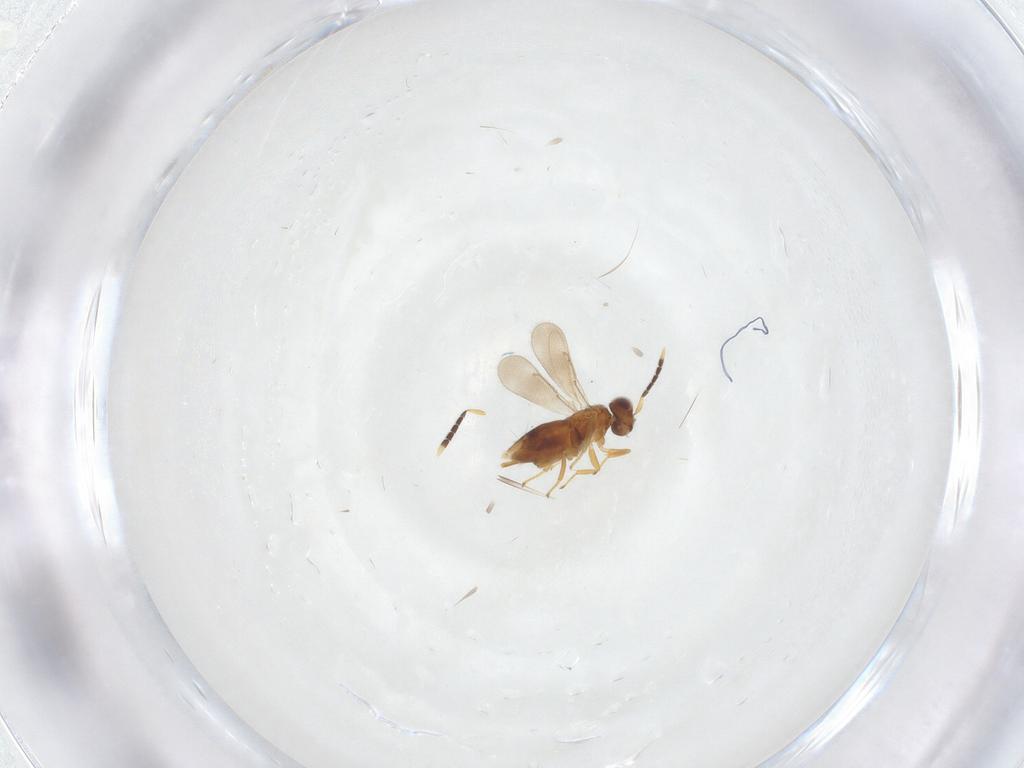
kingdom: Animalia
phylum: Arthropoda
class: Insecta
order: Hymenoptera
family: Aphelinidae
